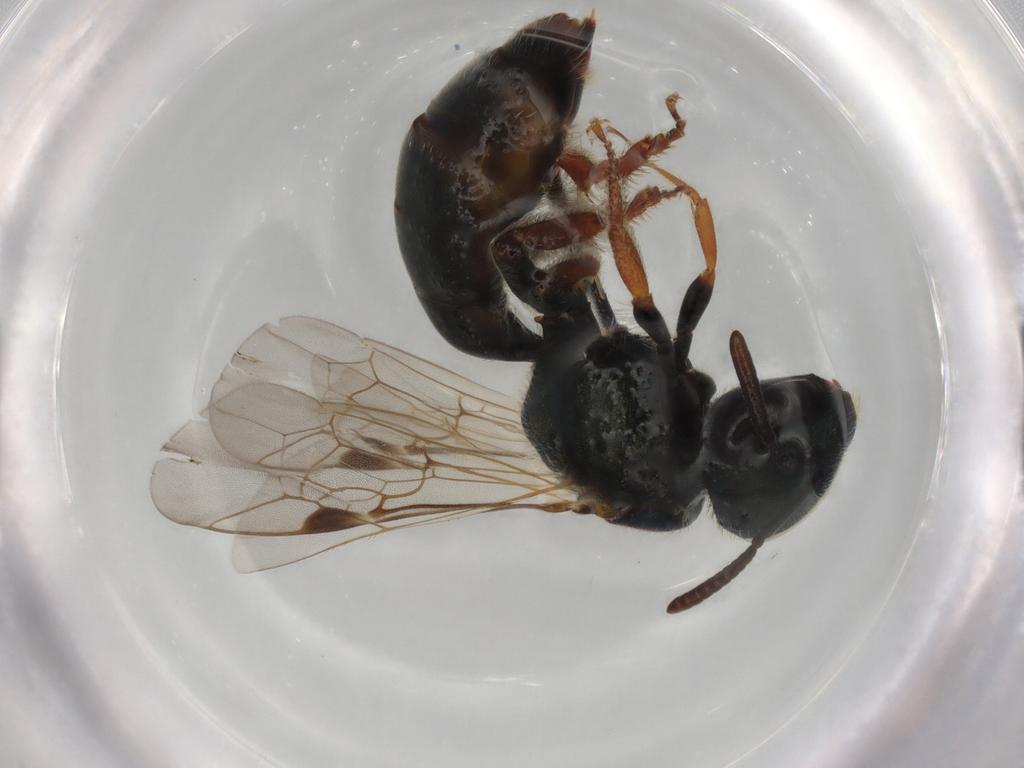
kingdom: Animalia
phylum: Arthropoda
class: Insecta
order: Hymenoptera
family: Halictidae
